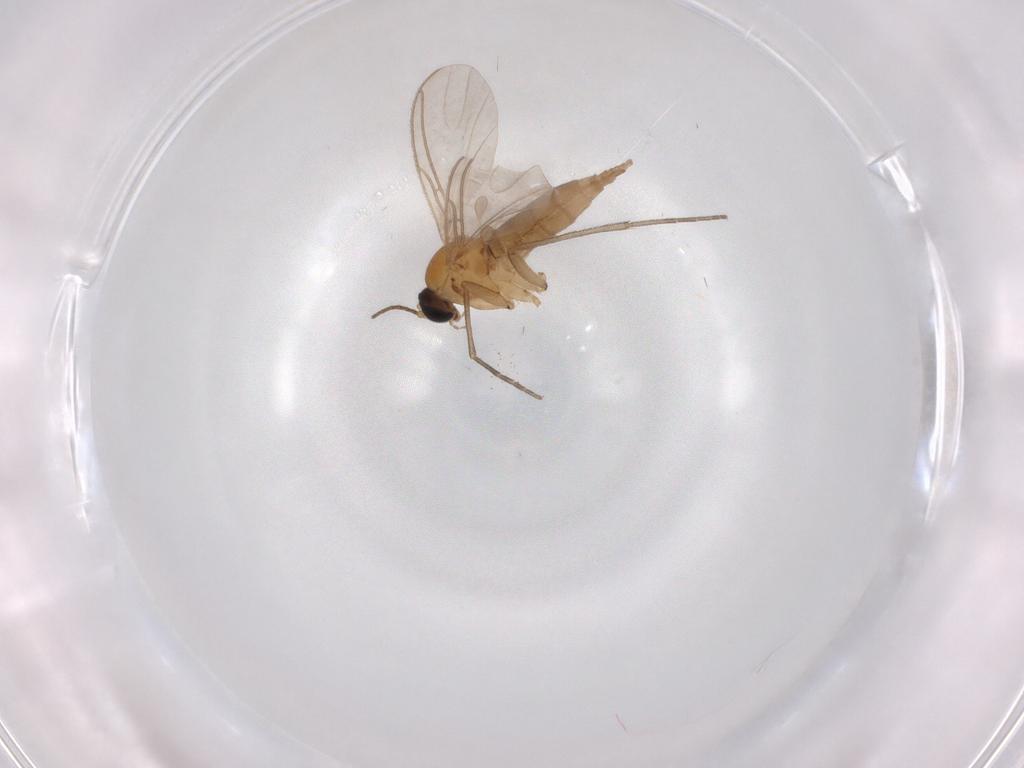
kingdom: Animalia
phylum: Arthropoda
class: Insecta
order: Diptera
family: Sciaridae
